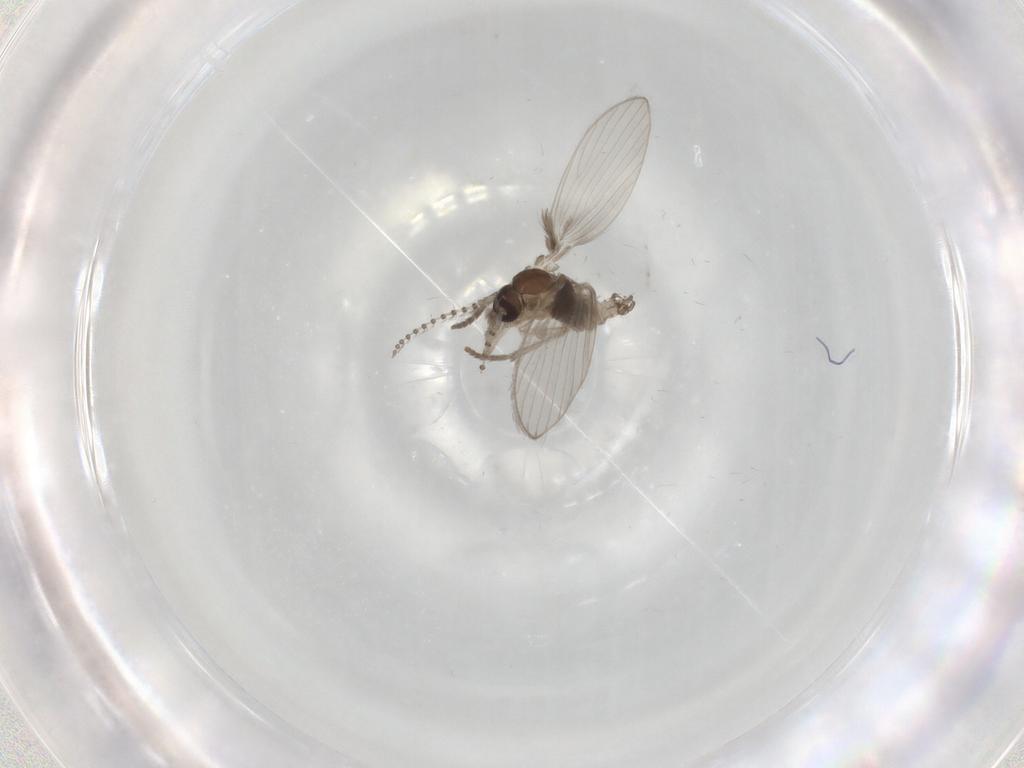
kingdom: Animalia
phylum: Arthropoda
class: Insecta
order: Diptera
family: Psychodidae
